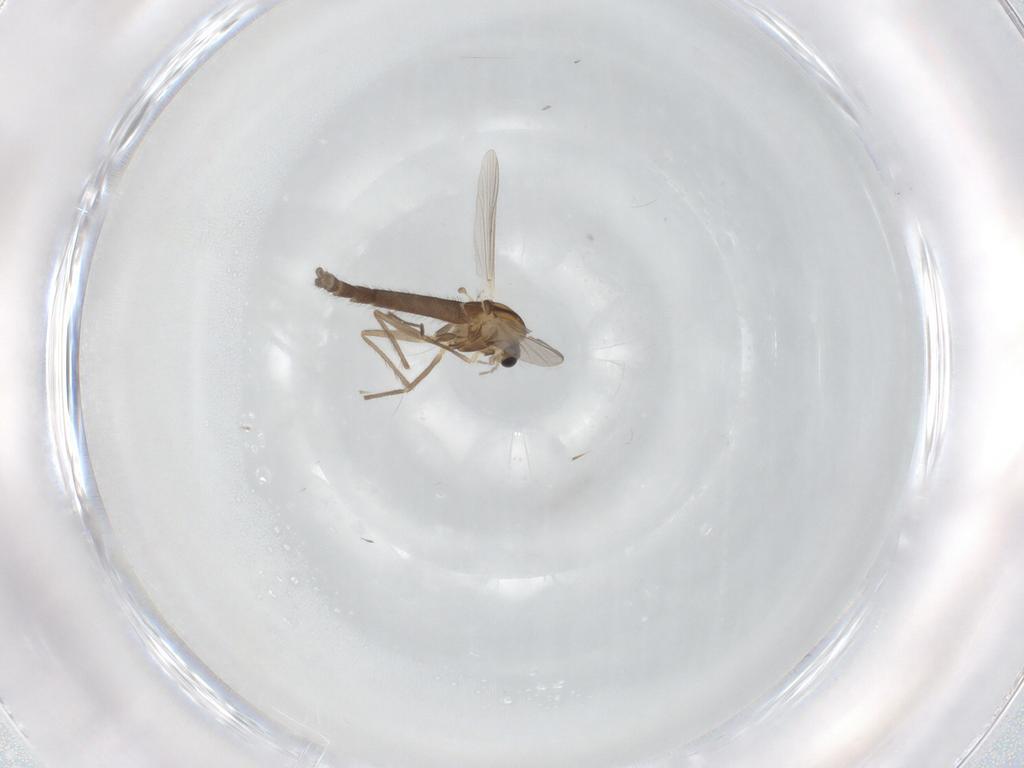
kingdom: Animalia
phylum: Arthropoda
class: Insecta
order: Diptera
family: Chironomidae
